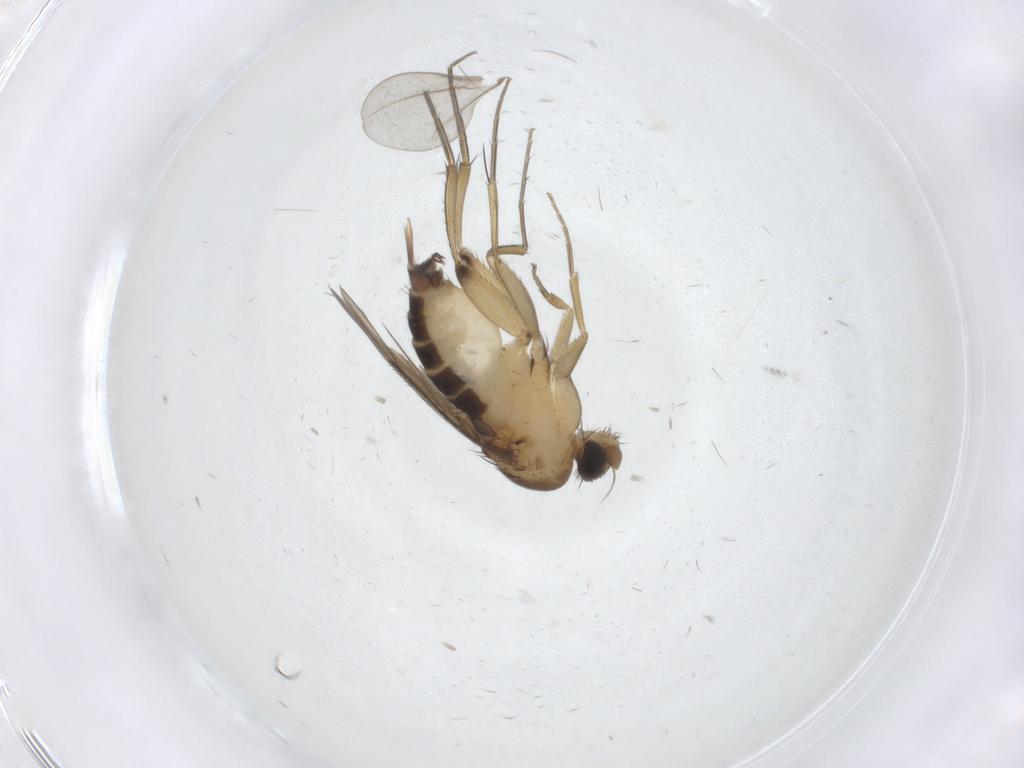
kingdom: Animalia
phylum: Arthropoda
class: Insecta
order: Diptera
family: Phoridae
